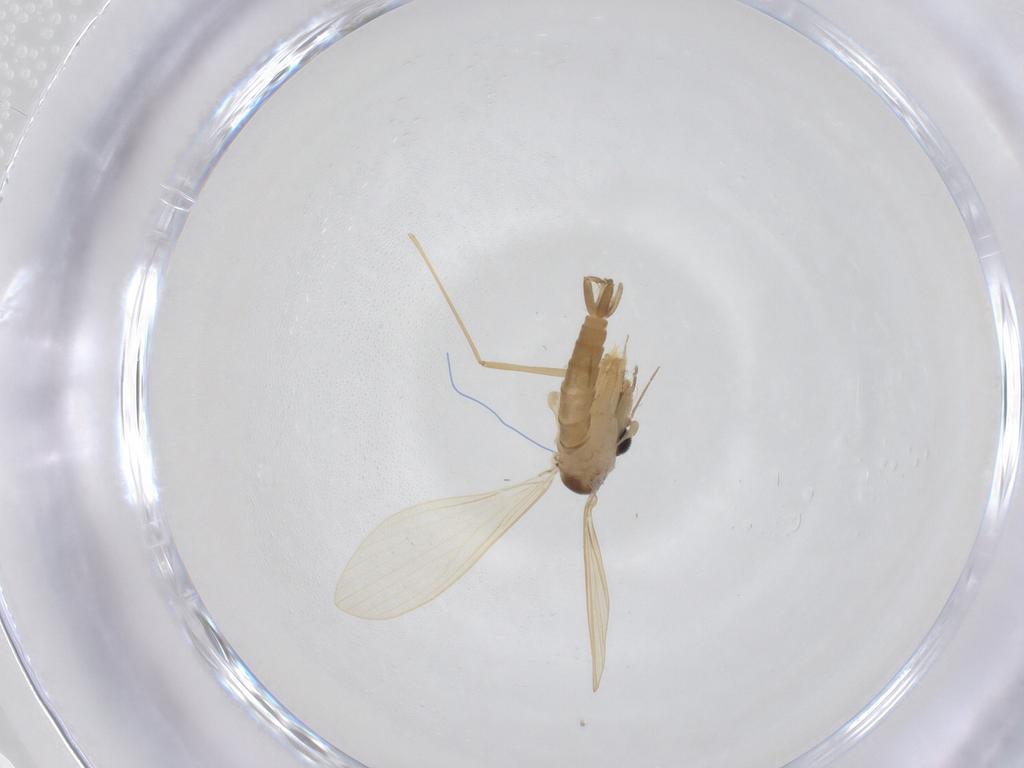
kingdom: Animalia
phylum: Arthropoda
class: Insecta
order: Diptera
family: Psychodidae
